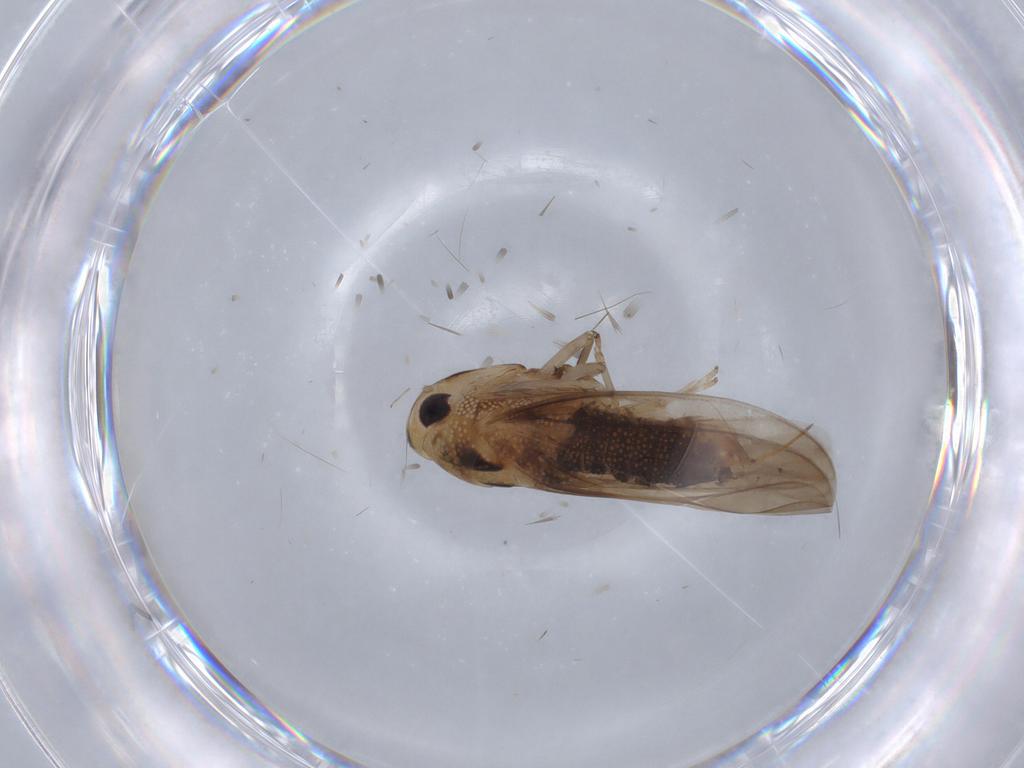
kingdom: Animalia
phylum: Arthropoda
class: Insecta
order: Hemiptera
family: Cicadellidae
